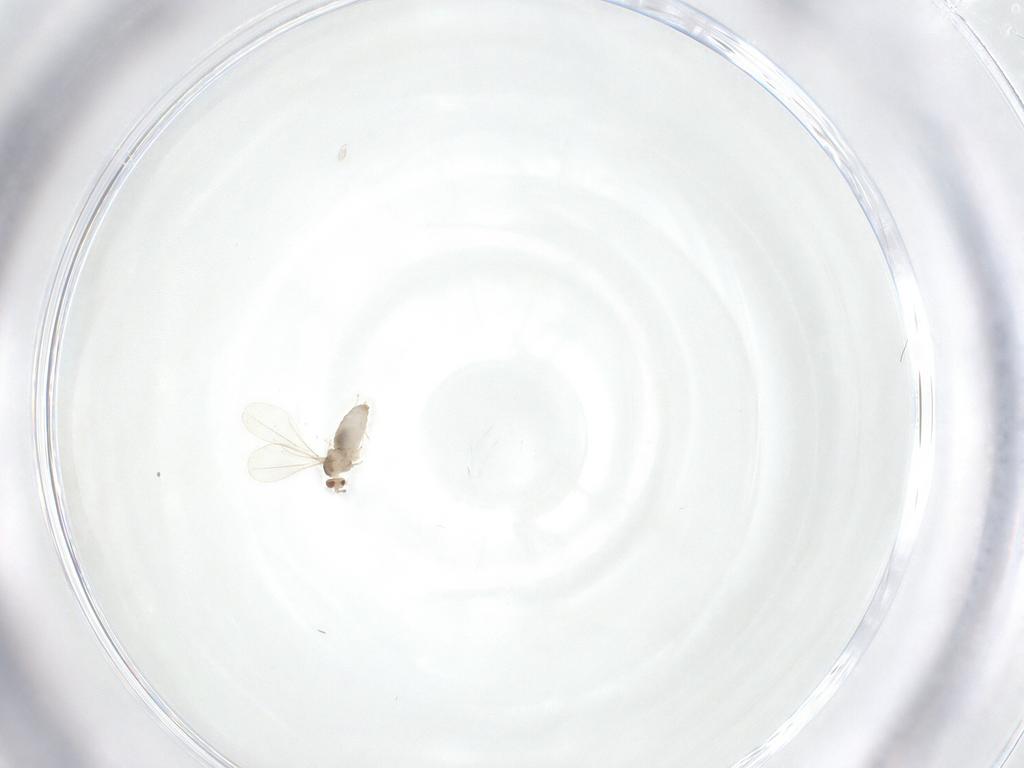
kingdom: Animalia
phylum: Arthropoda
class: Insecta
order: Diptera
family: Cecidomyiidae
